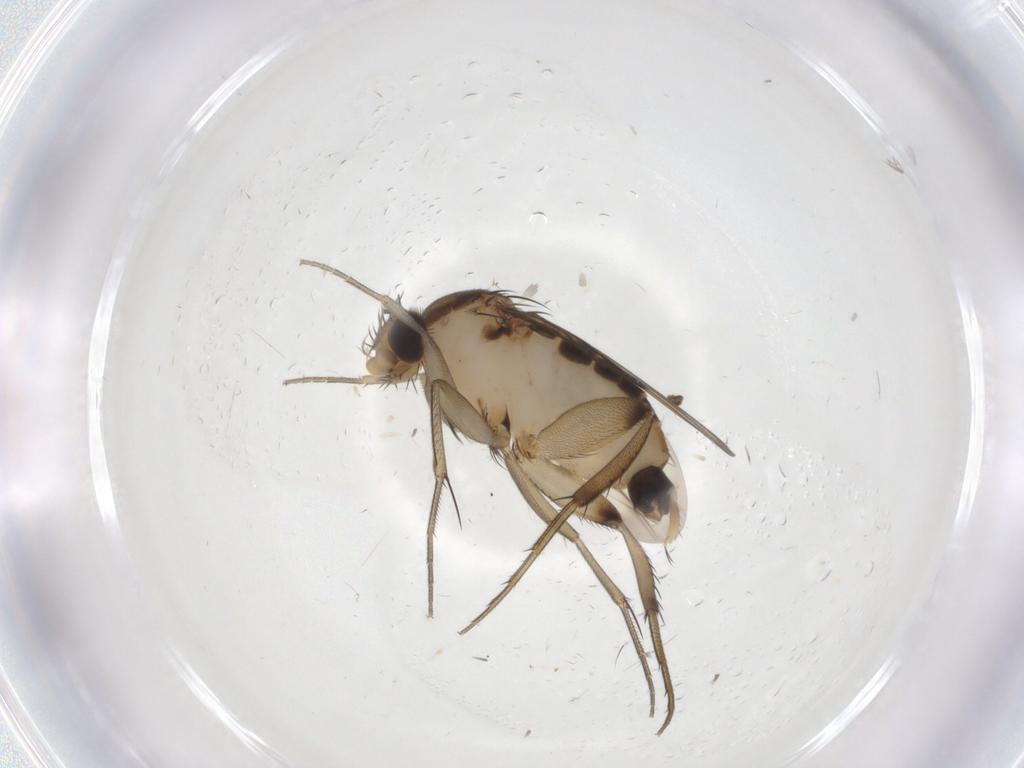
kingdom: Animalia
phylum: Arthropoda
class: Insecta
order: Diptera
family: Phoridae
